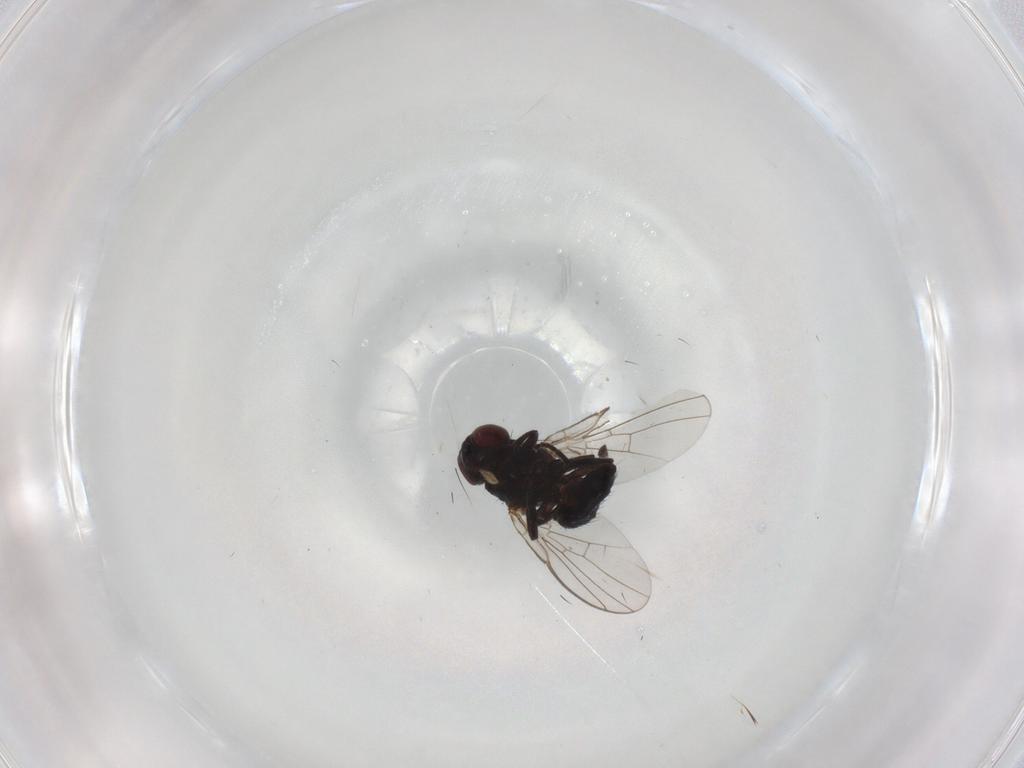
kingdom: Animalia
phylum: Arthropoda
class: Insecta
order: Diptera
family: Agromyzidae
